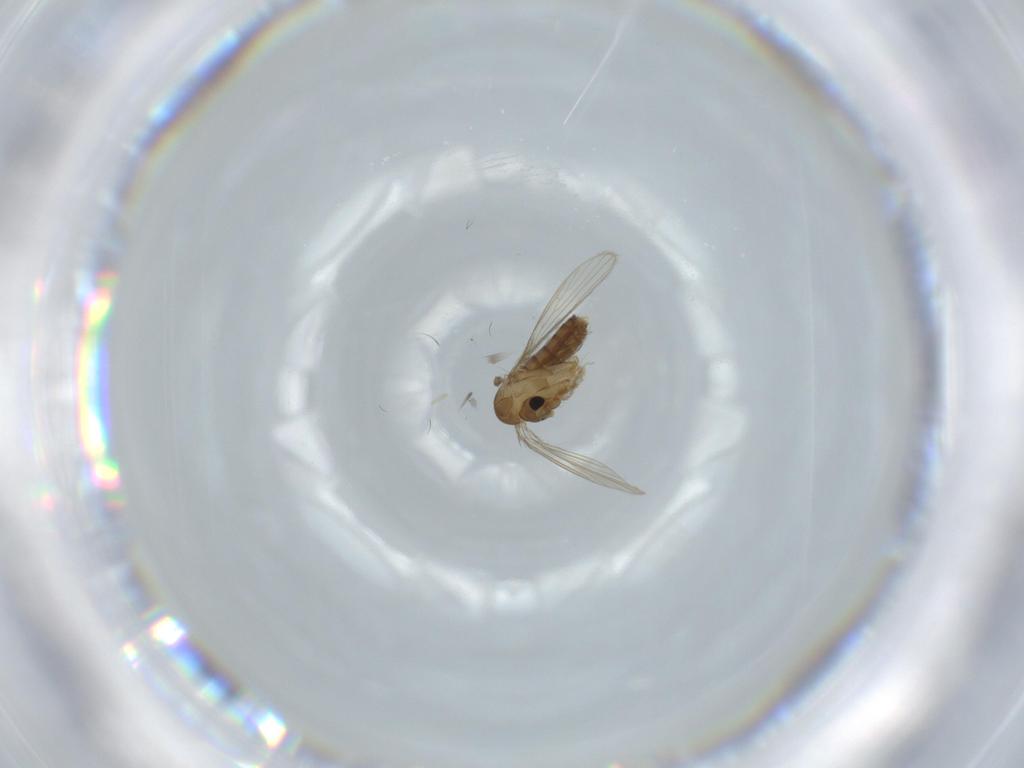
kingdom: Animalia
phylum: Arthropoda
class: Insecta
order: Diptera
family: Psychodidae
